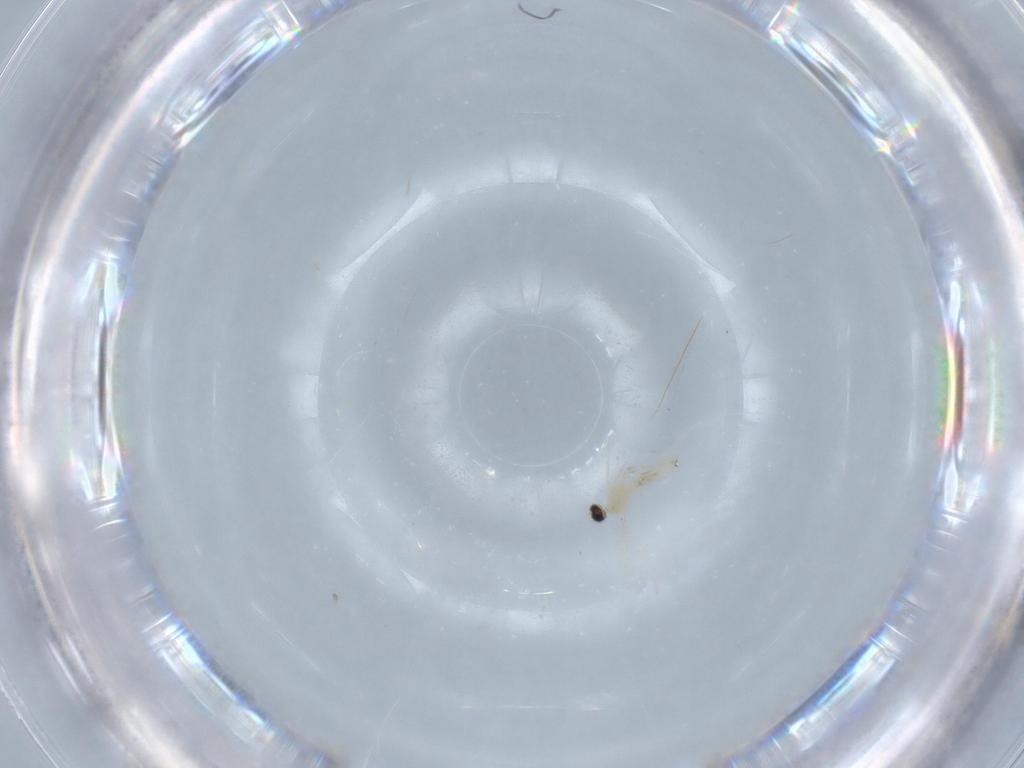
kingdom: Animalia
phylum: Arthropoda
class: Insecta
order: Diptera
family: Cecidomyiidae
